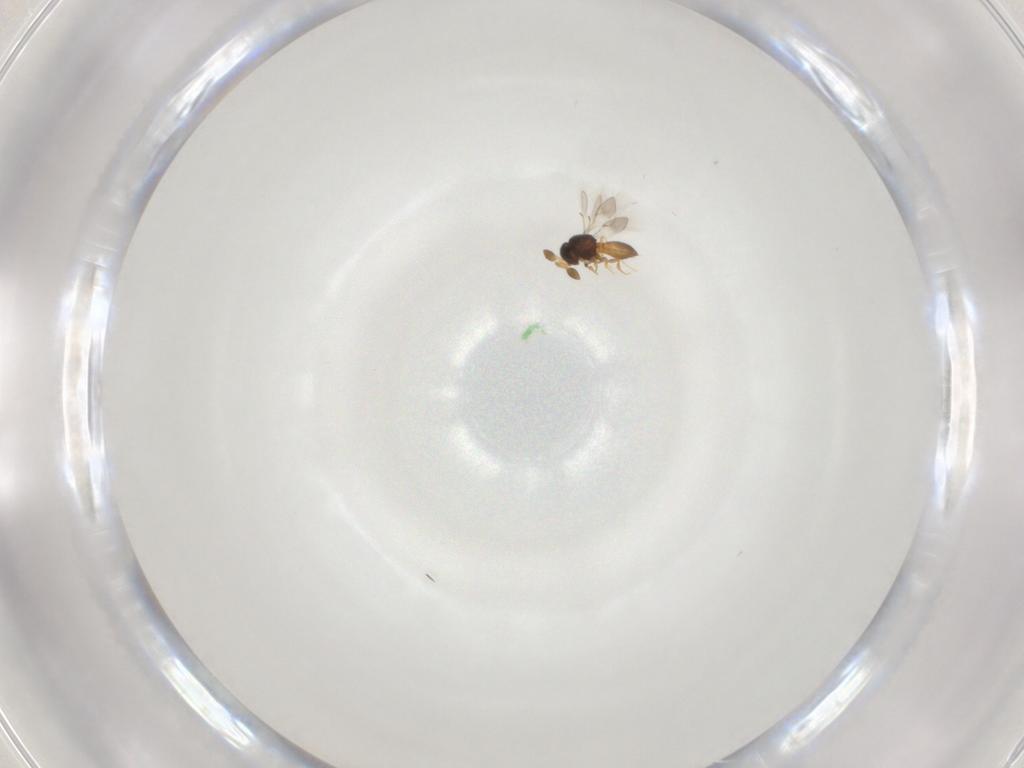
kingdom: Animalia
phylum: Arthropoda
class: Insecta
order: Hymenoptera
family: Scelionidae
